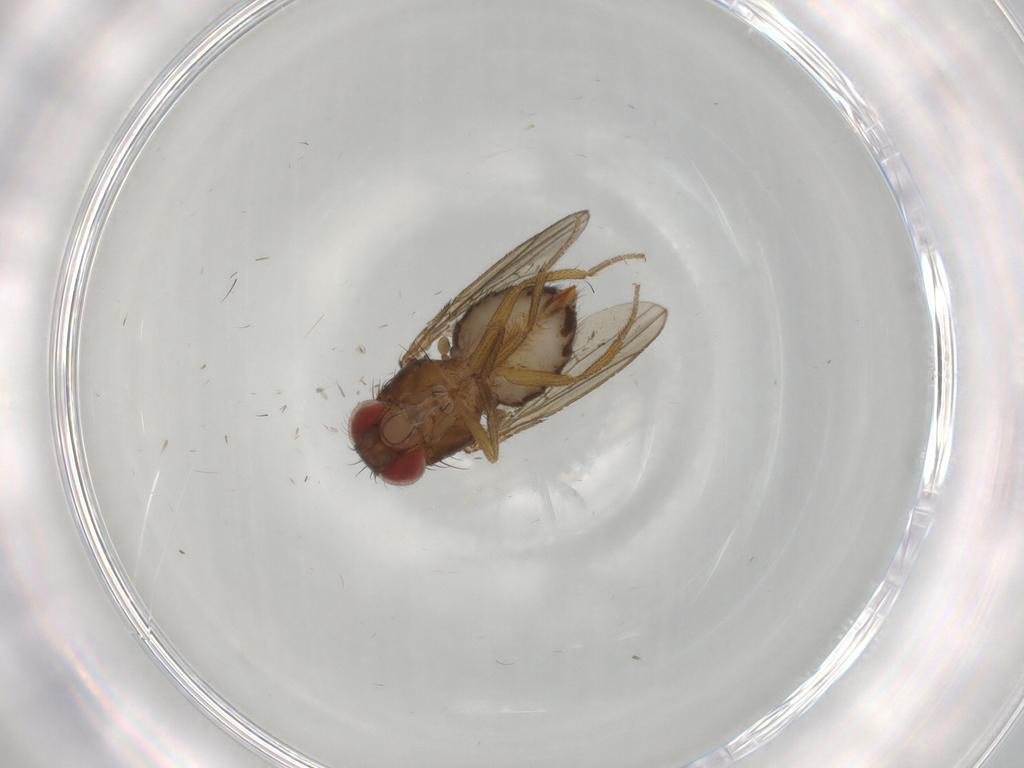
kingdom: Animalia
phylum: Arthropoda
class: Insecta
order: Diptera
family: Drosophilidae
